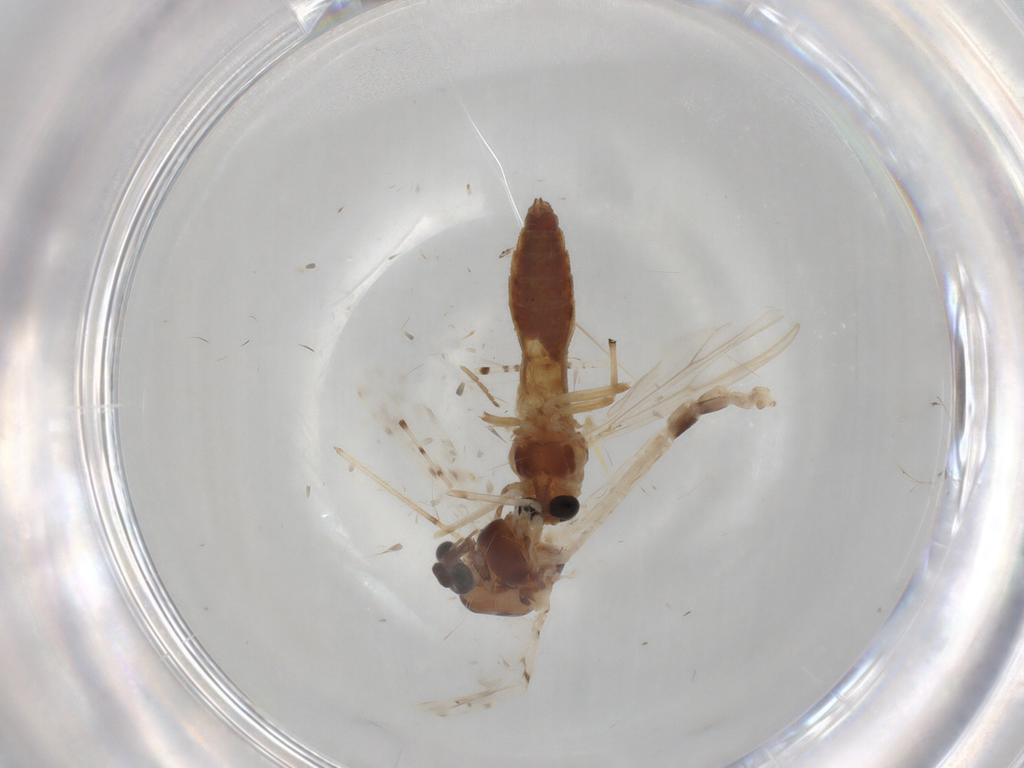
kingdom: Animalia
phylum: Arthropoda
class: Insecta
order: Diptera
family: Chironomidae
